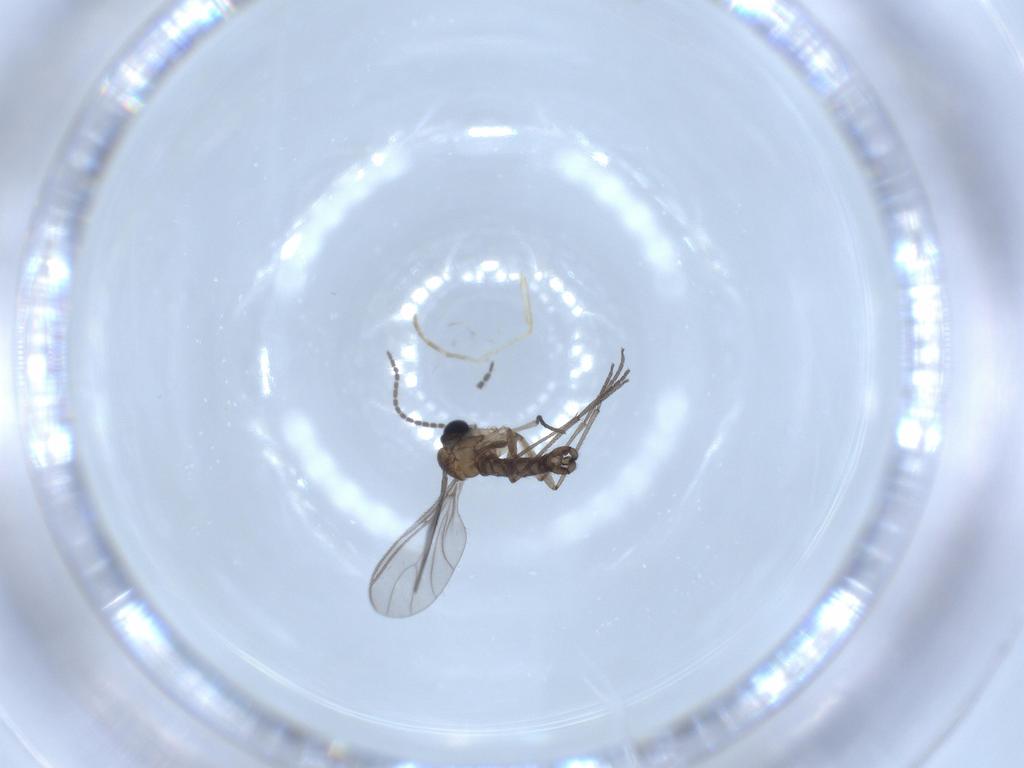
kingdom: Animalia
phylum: Arthropoda
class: Insecta
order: Diptera
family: Sciaridae
